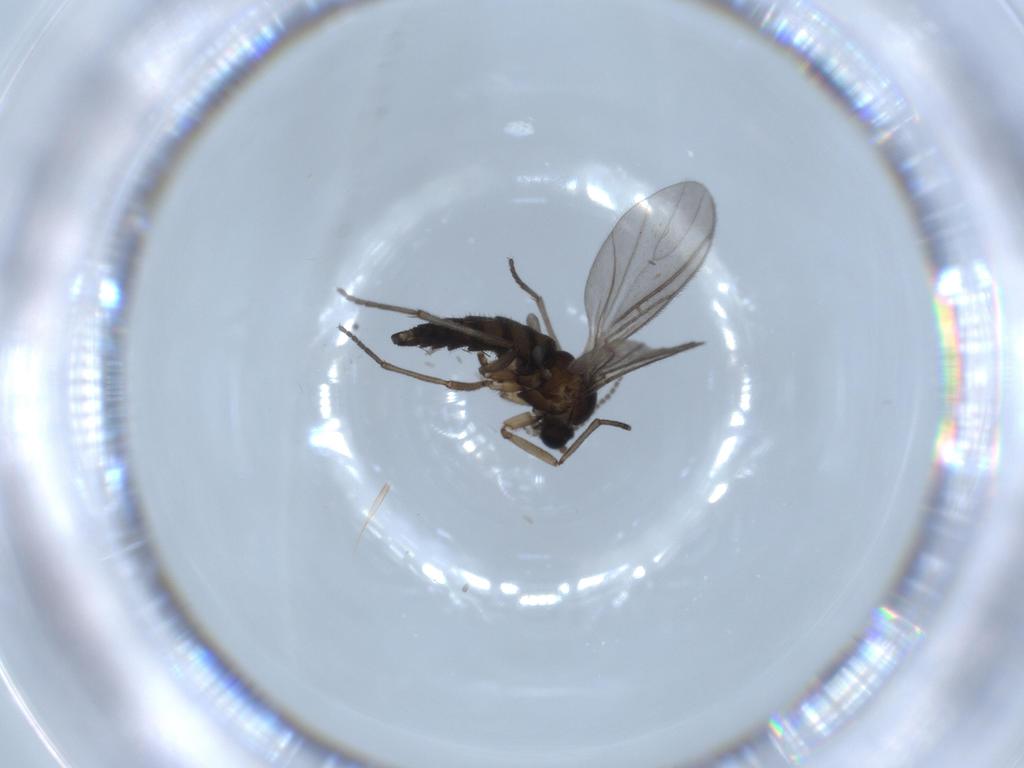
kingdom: Animalia
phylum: Arthropoda
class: Insecta
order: Diptera
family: Sciaridae
